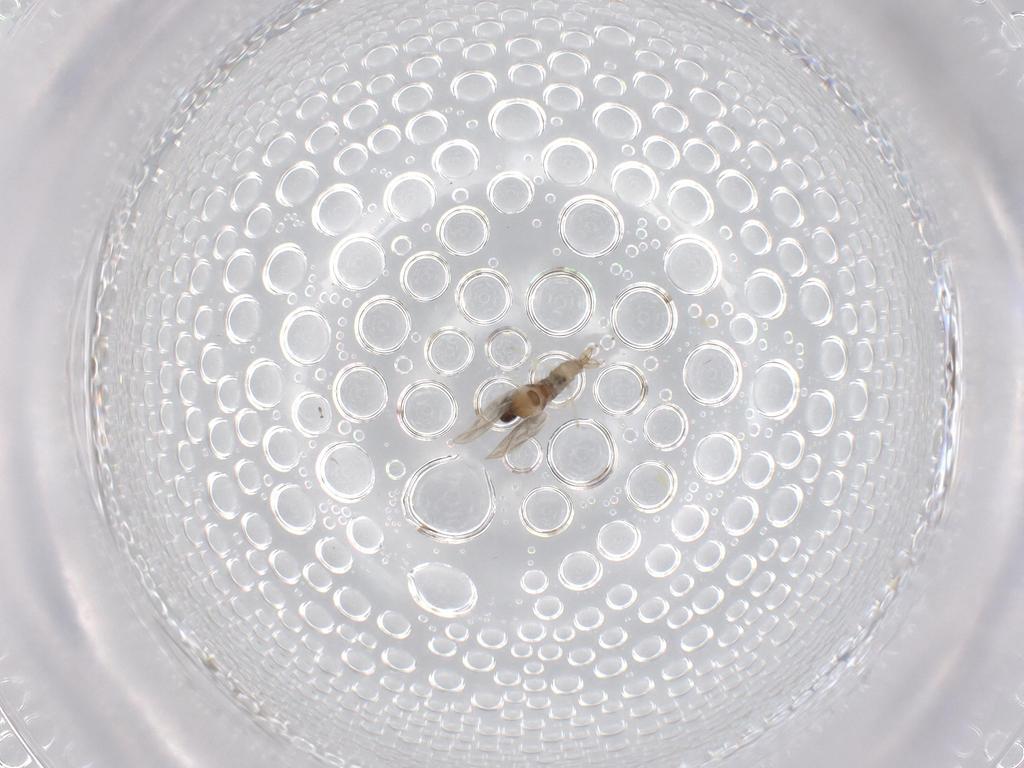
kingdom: Animalia
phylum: Arthropoda
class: Insecta
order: Diptera
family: Cecidomyiidae
